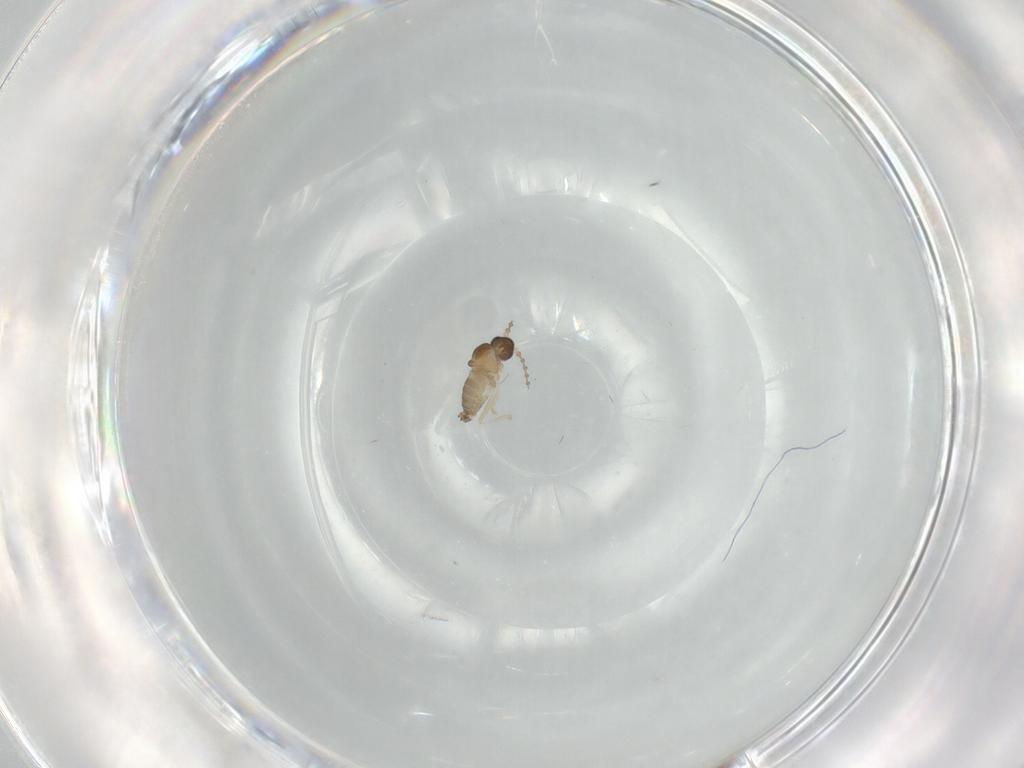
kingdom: Animalia
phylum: Arthropoda
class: Insecta
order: Diptera
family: Cecidomyiidae
